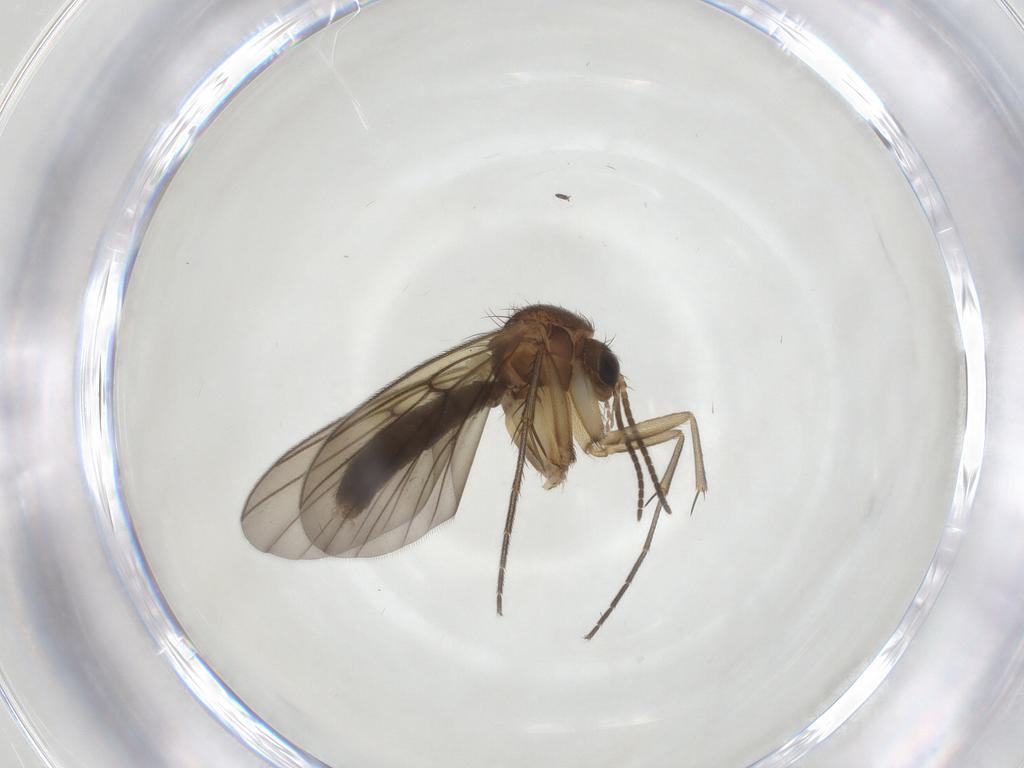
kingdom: Animalia
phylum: Arthropoda
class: Insecta
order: Diptera
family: Mycetophilidae
